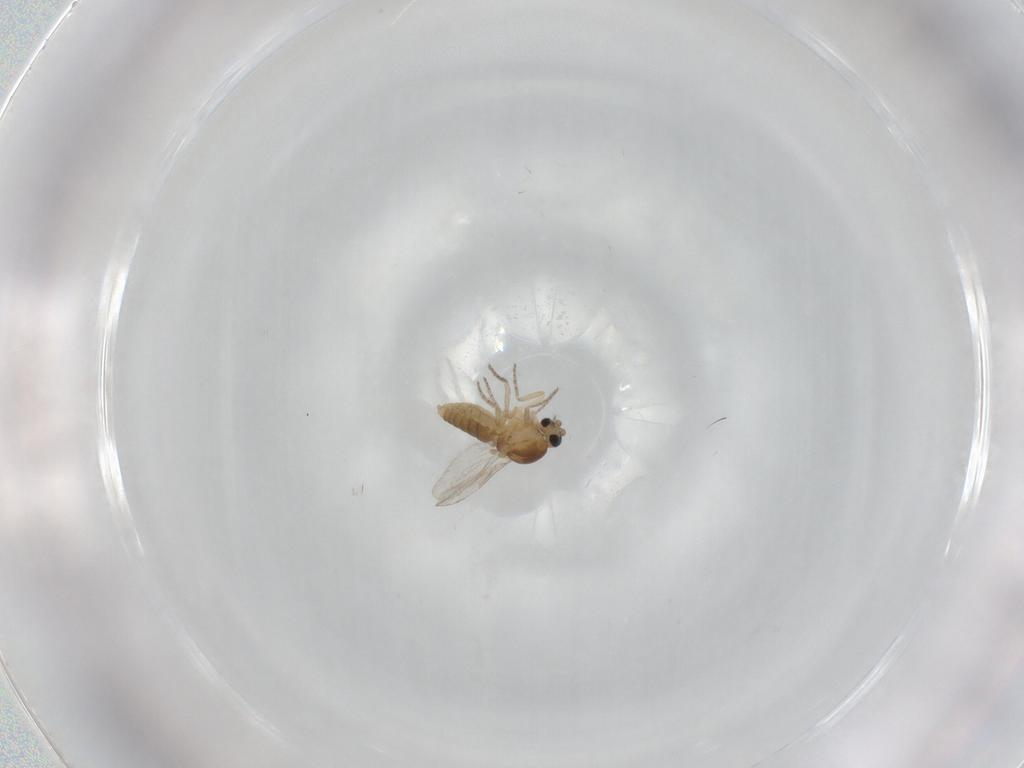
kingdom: Animalia
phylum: Arthropoda
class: Insecta
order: Diptera
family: Ceratopogonidae
